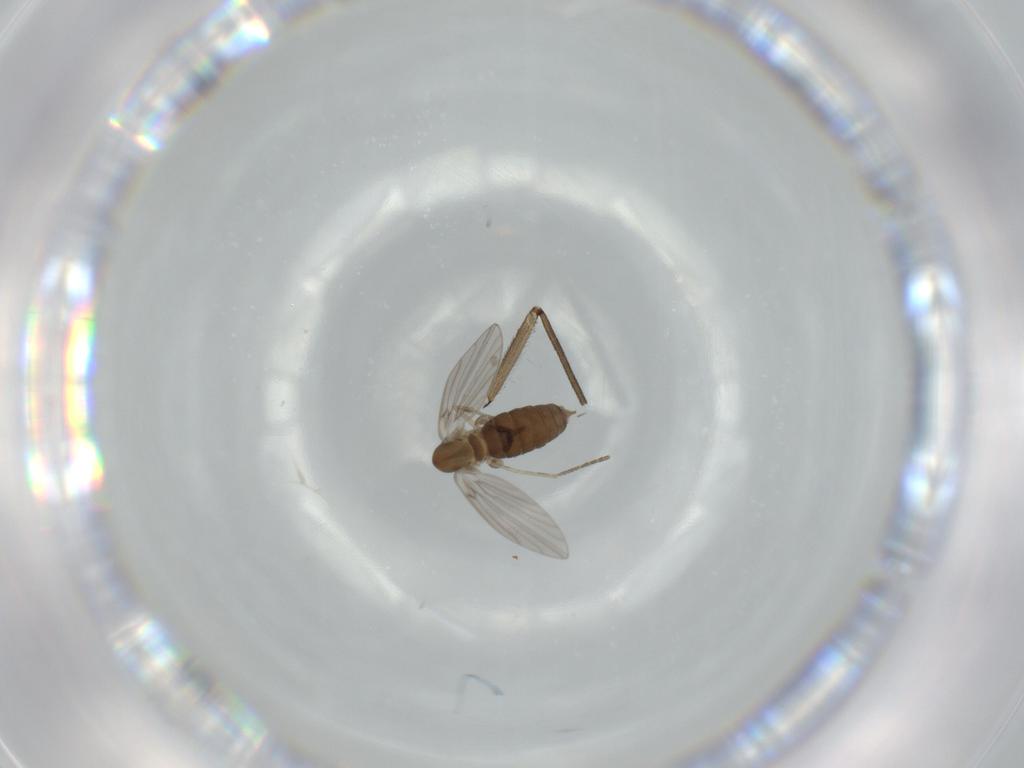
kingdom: Animalia
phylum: Arthropoda
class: Insecta
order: Diptera
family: Sciaridae
